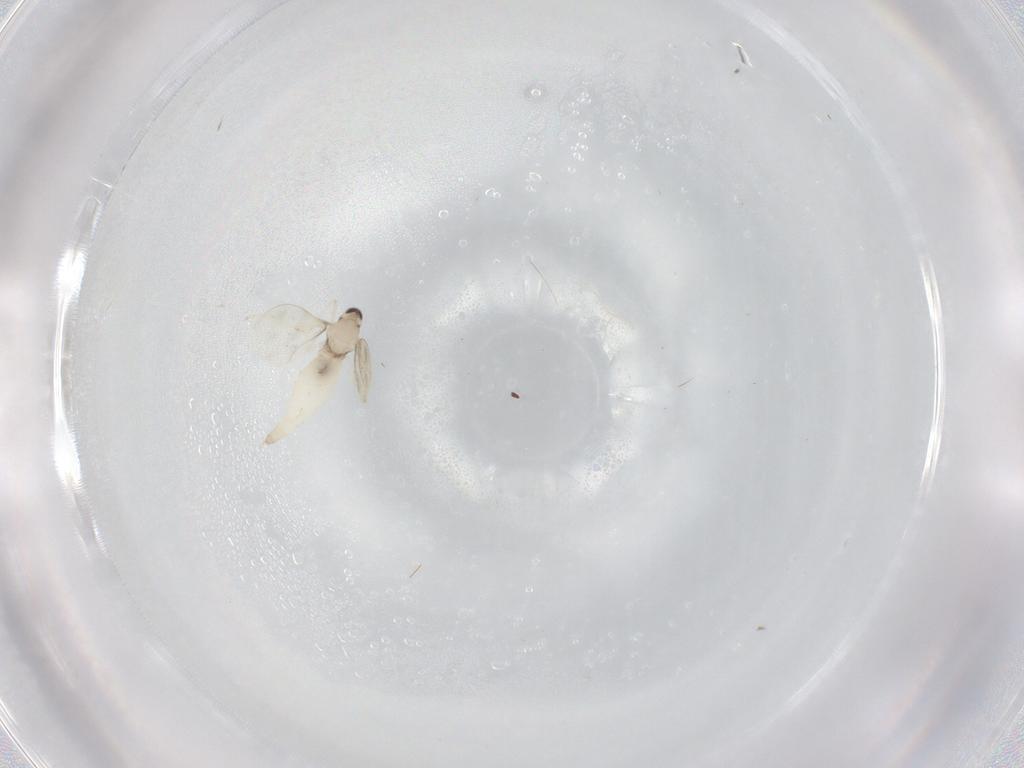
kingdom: Animalia
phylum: Arthropoda
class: Insecta
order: Diptera
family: Cecidomyiidae
